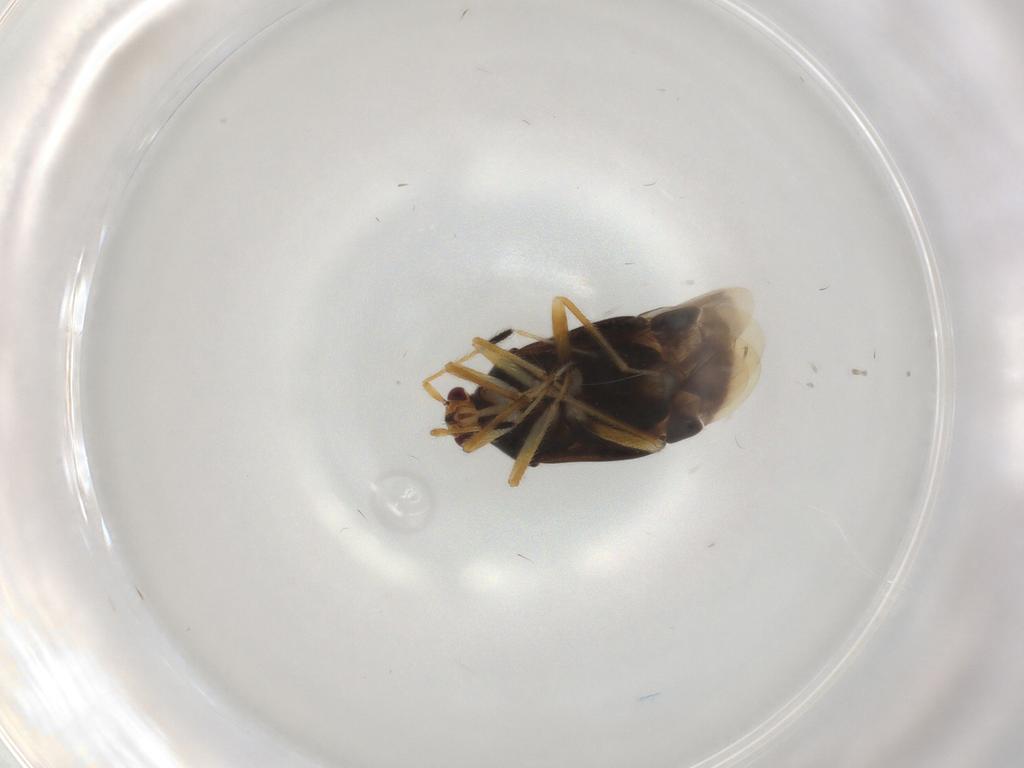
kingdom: Animalia
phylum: Arthropoda
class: Insecta
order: Hemiptera
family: Miridae
